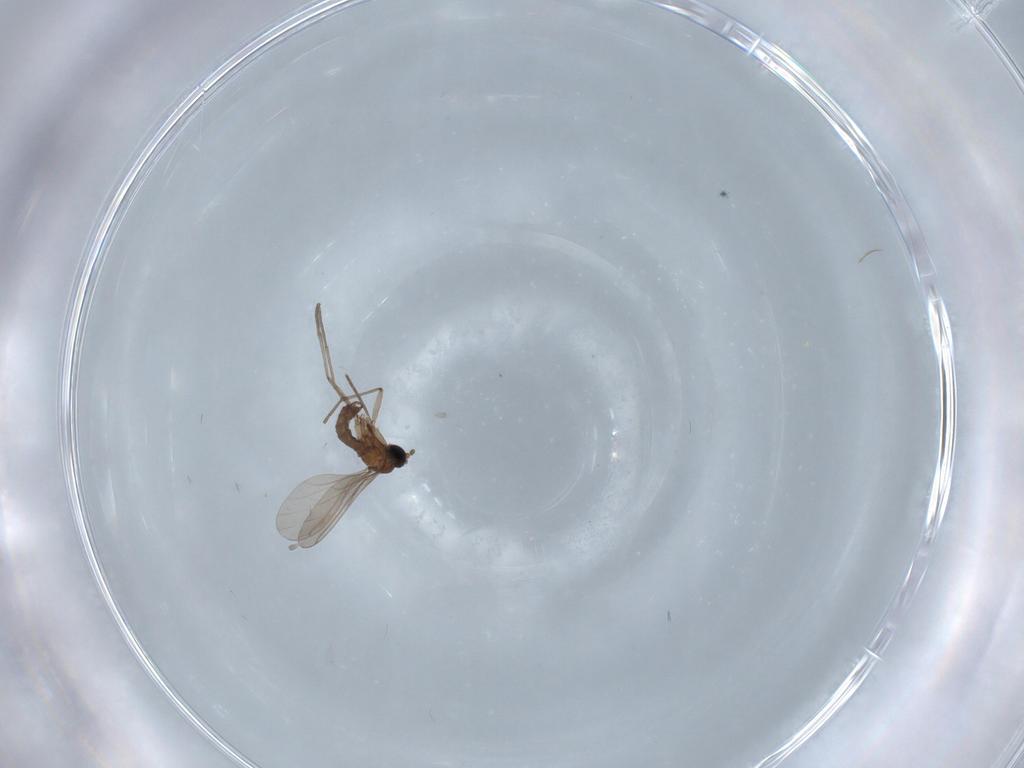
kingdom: Animalia
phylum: Arthropoda
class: Insecta
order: Diptera
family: Sciaridae
